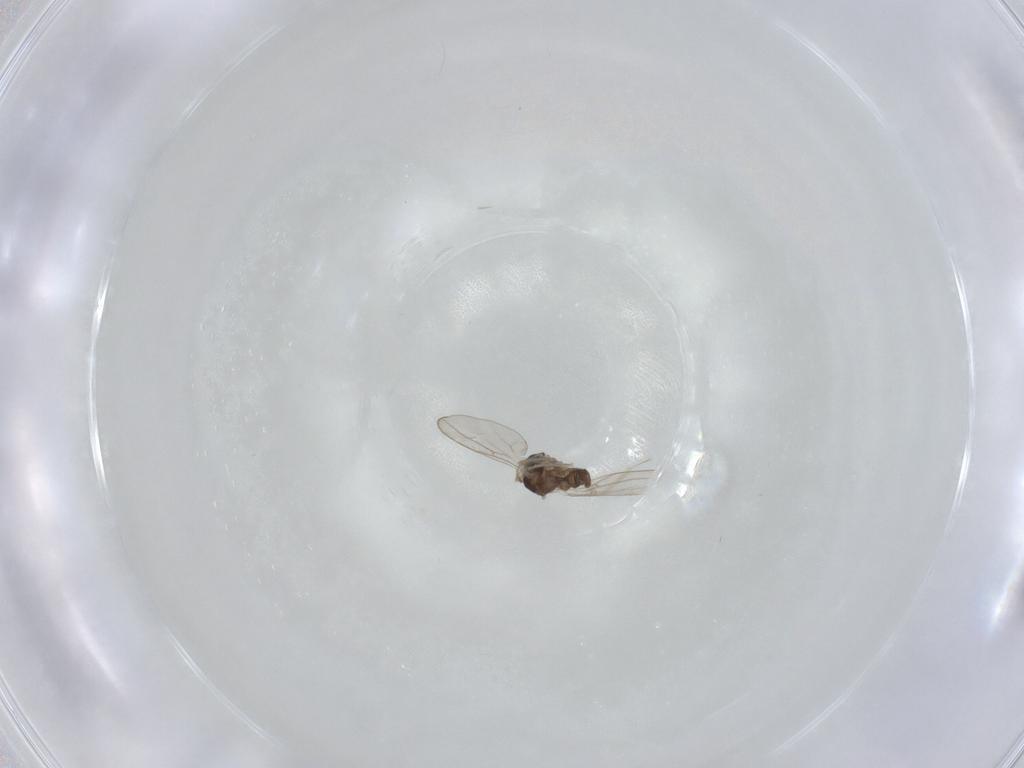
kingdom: Animalia
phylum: Arthropoda
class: Insecta
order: Diptera
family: Cecidomyiidae
